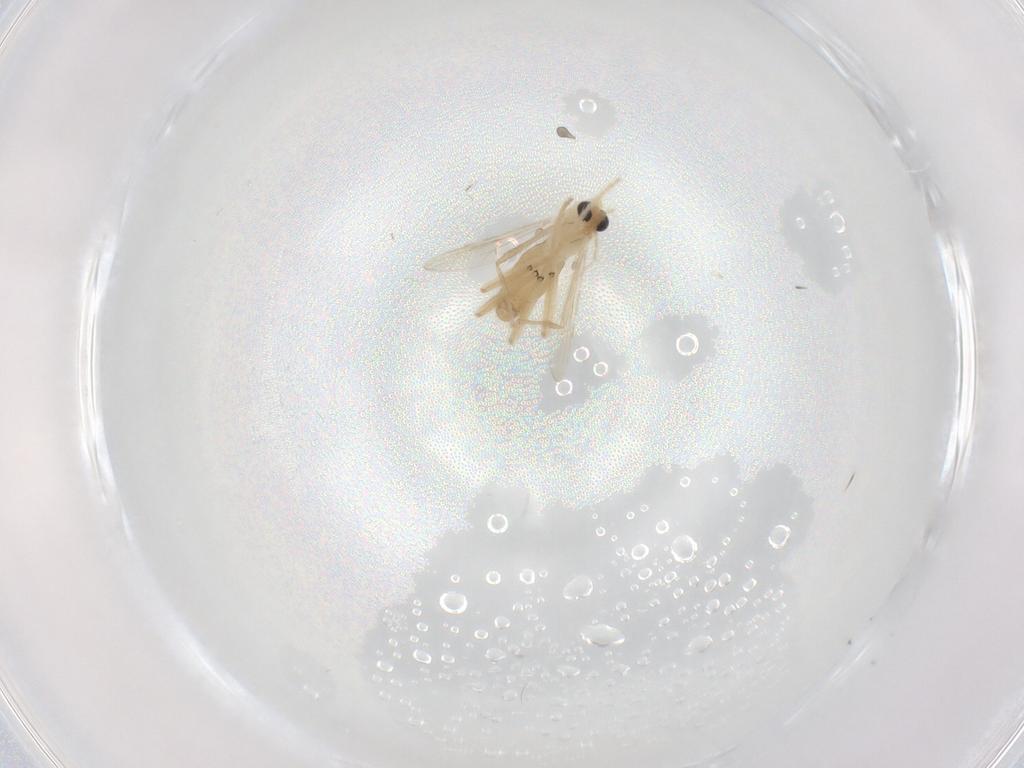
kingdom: Animalia
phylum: Arthropoda
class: Insecta
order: Diptera
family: Chironomidae
